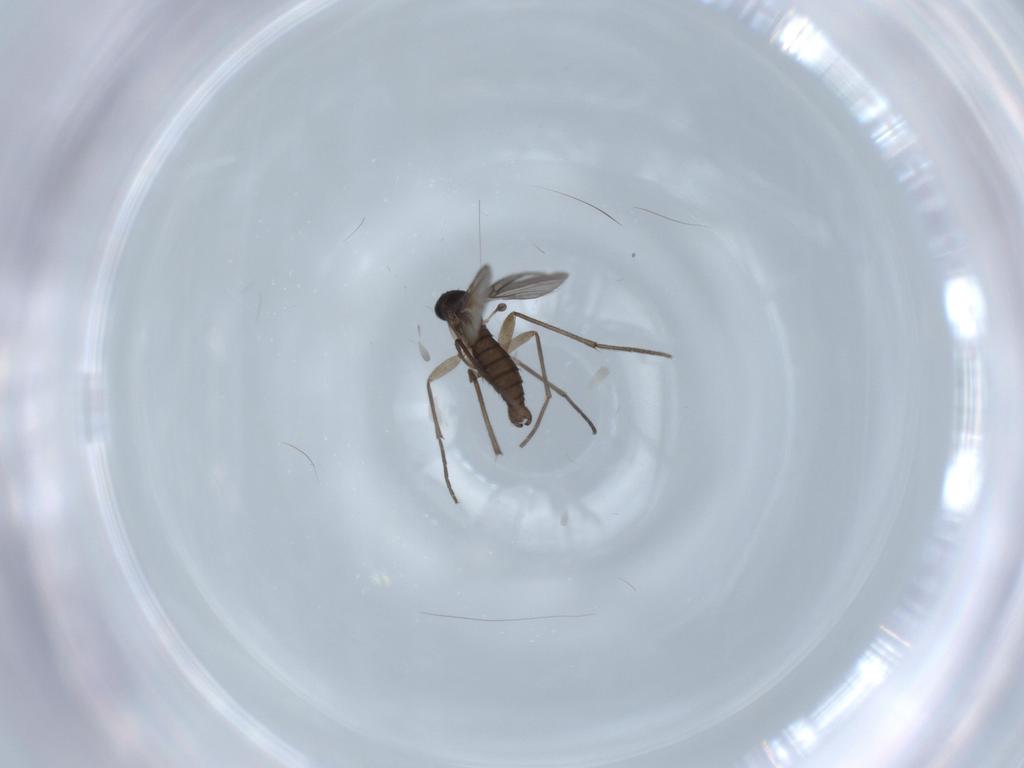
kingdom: Animalia
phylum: Arthropoda
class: Insecta
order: Diptera
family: Sciaridae
